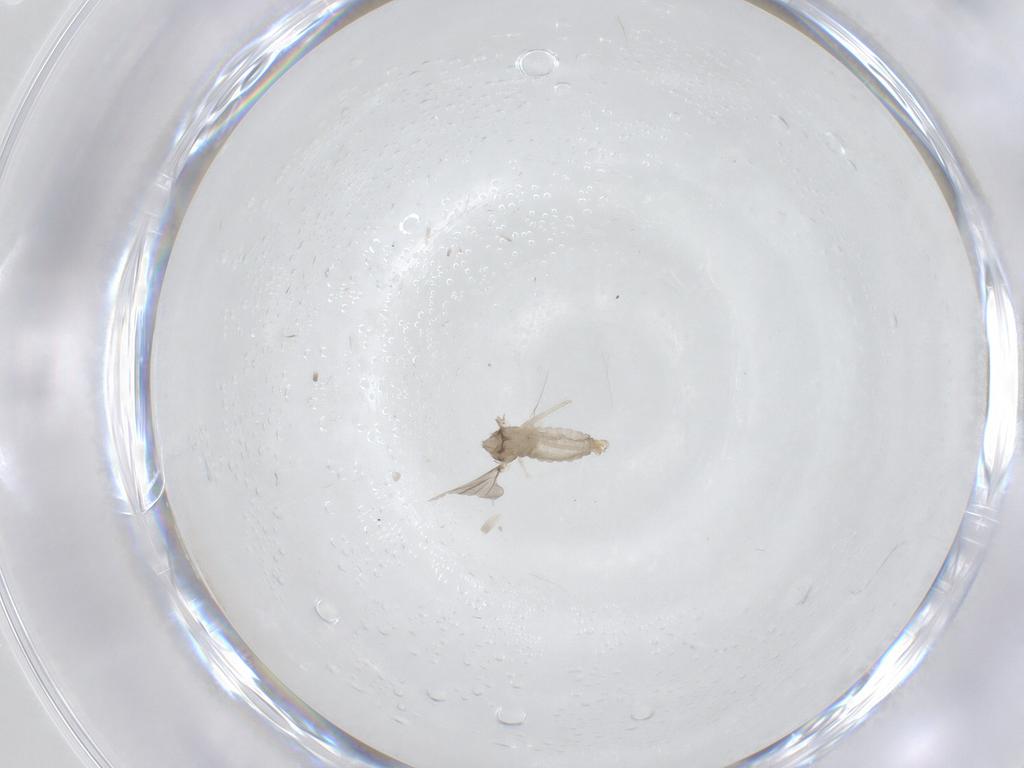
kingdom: Animalia
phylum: Arthropoda
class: Insecta
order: Diptera
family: Cecidomyiidae
